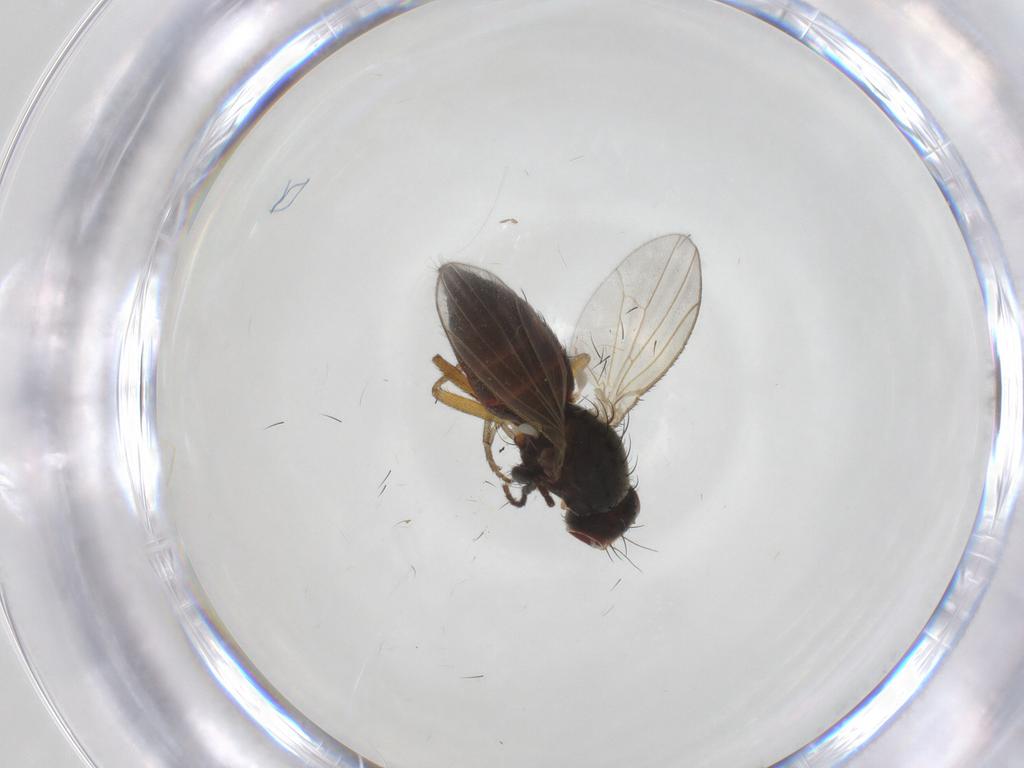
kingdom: Animalia
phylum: Arthropoda
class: Insecta
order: Diptera
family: Heleomyzidae
